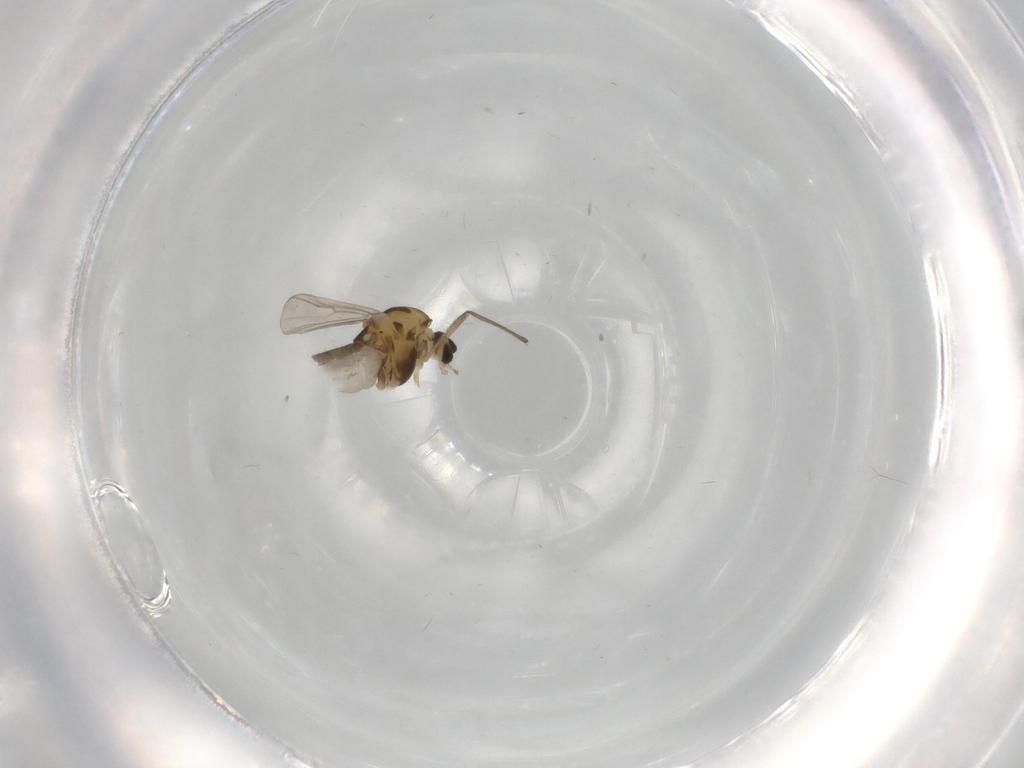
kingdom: Animalia
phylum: Arthropoda
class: Insecta
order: Diptera
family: Chironomidae
